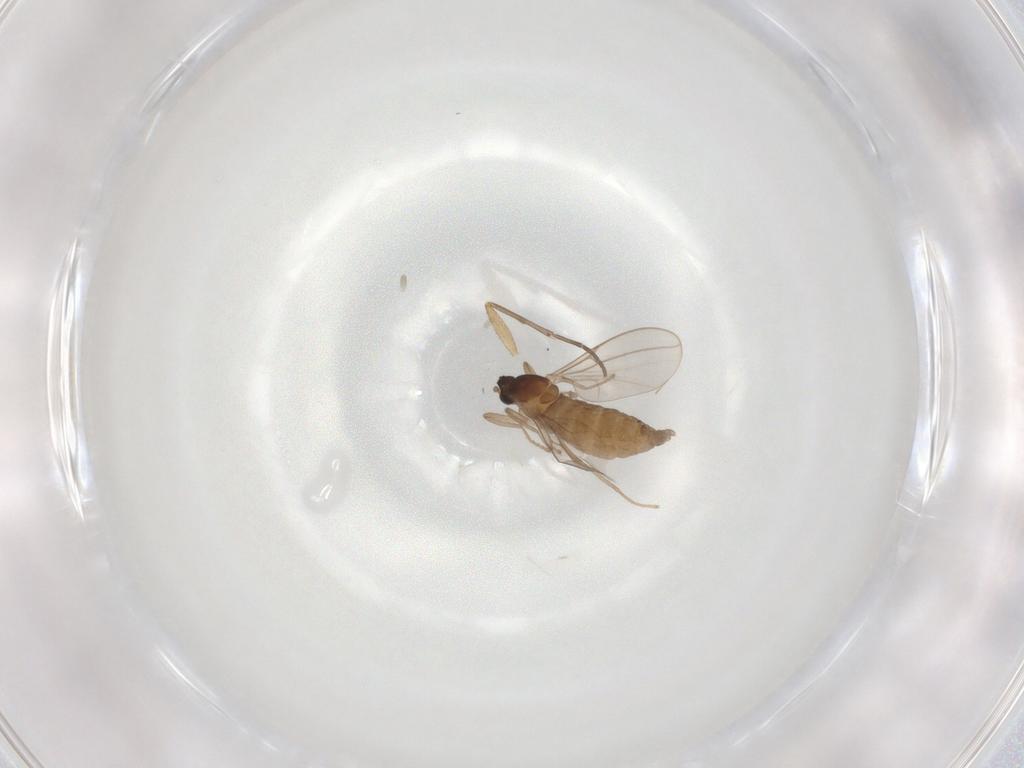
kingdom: Animalia
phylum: Arthropoda
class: Insecta
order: Diptera
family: Cecidomyiidae
